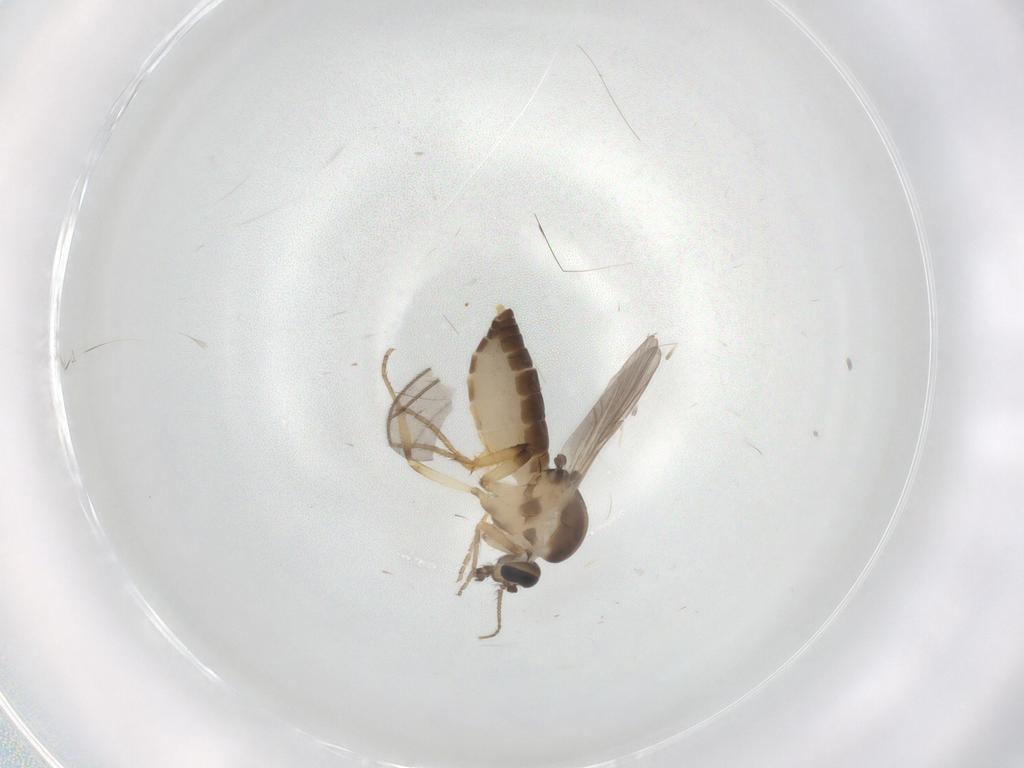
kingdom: Animalia
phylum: Arthropoda
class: Insecta
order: Diptera
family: Ceratopogonidae
